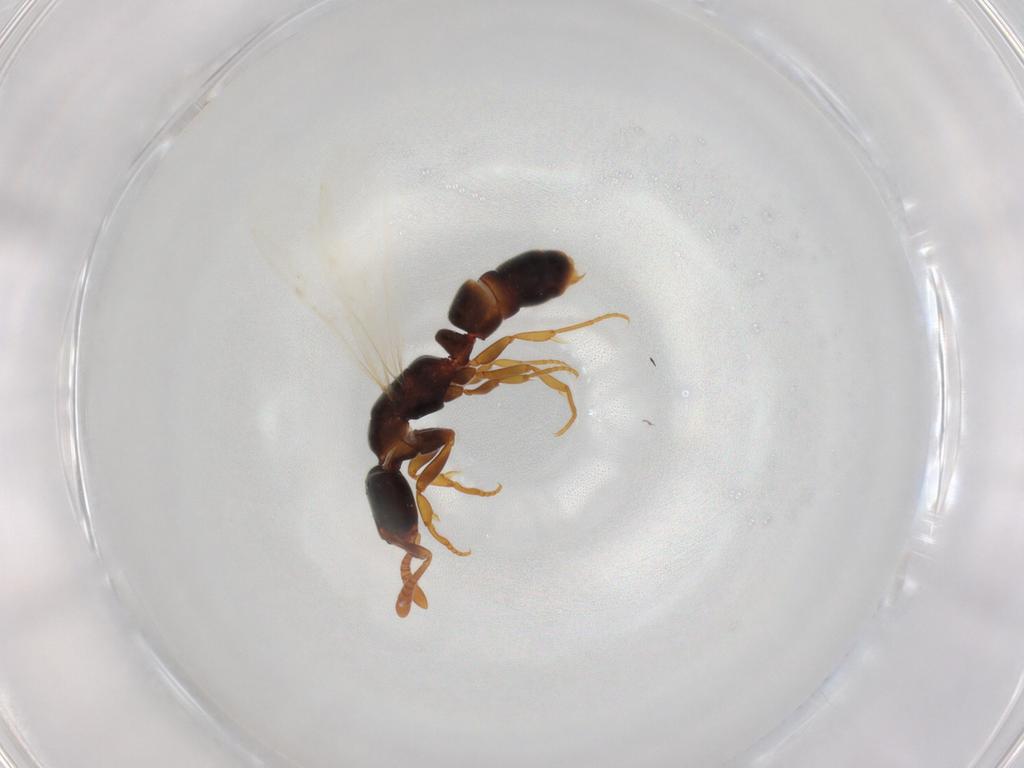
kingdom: Animalia
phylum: Arthropoda
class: Insecta
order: Hymenoptera
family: Formicidae
